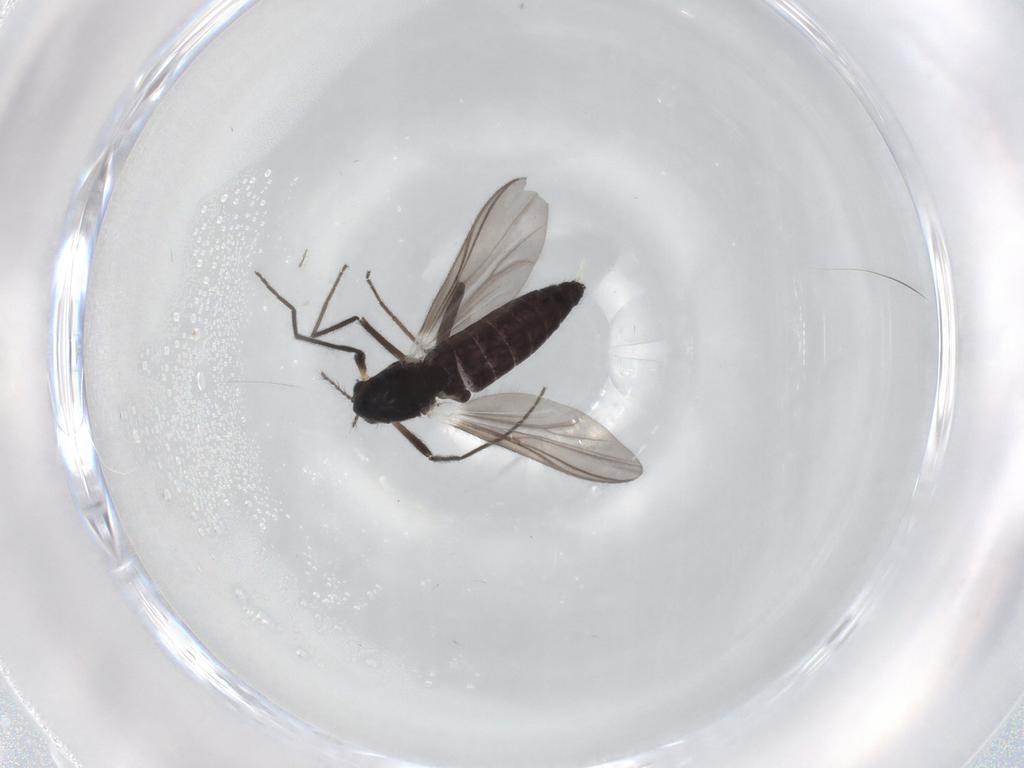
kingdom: Animalia
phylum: Arthropoda
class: Insecta
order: Diptera
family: Chironomidae
